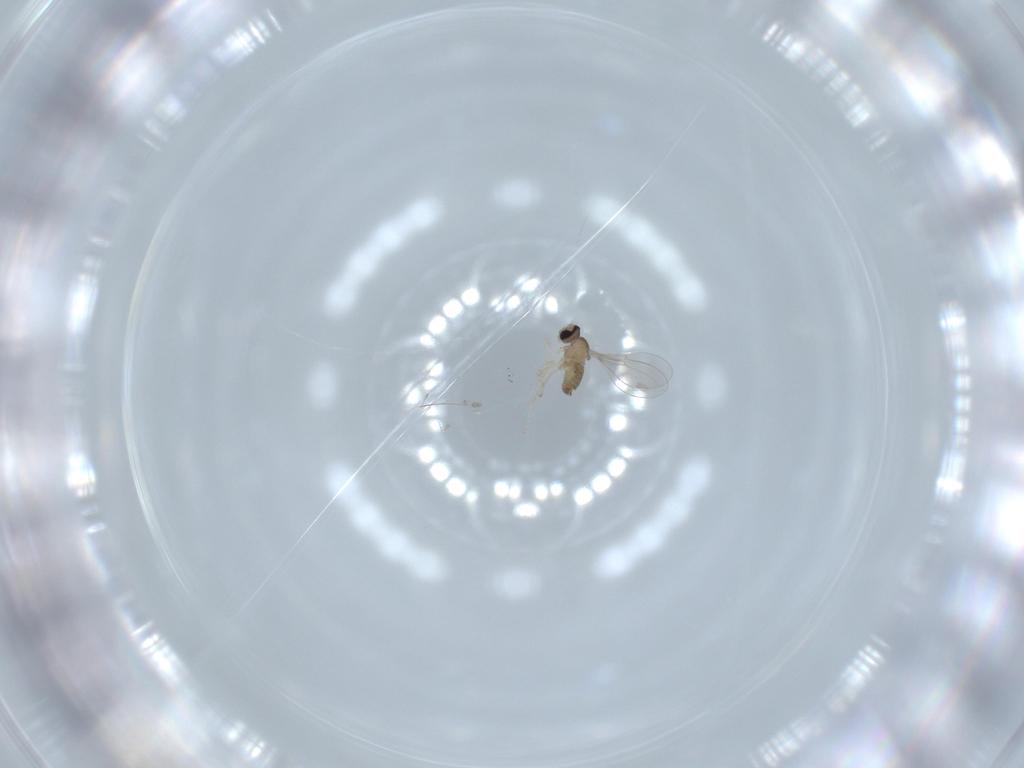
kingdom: Animalia
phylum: Arthropoda
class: Insecta
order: Diptera
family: Cecidomyiidae
